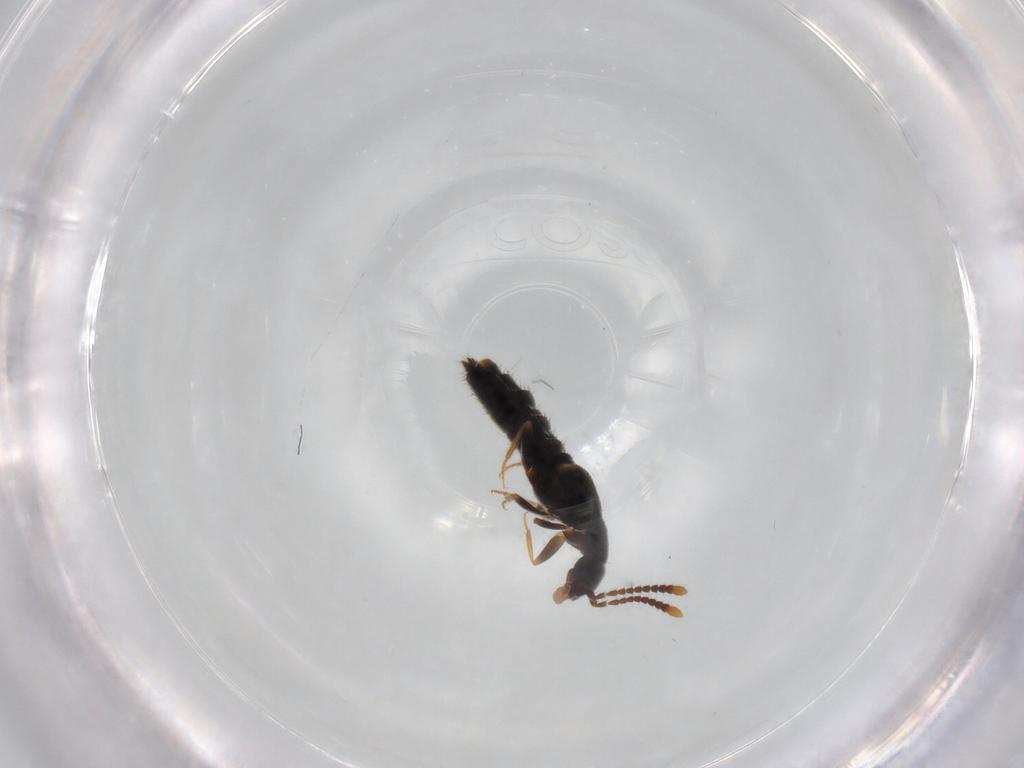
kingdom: Animalia
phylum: Arthropoda
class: Insecta
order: Coleoptera
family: Staphylinidae
